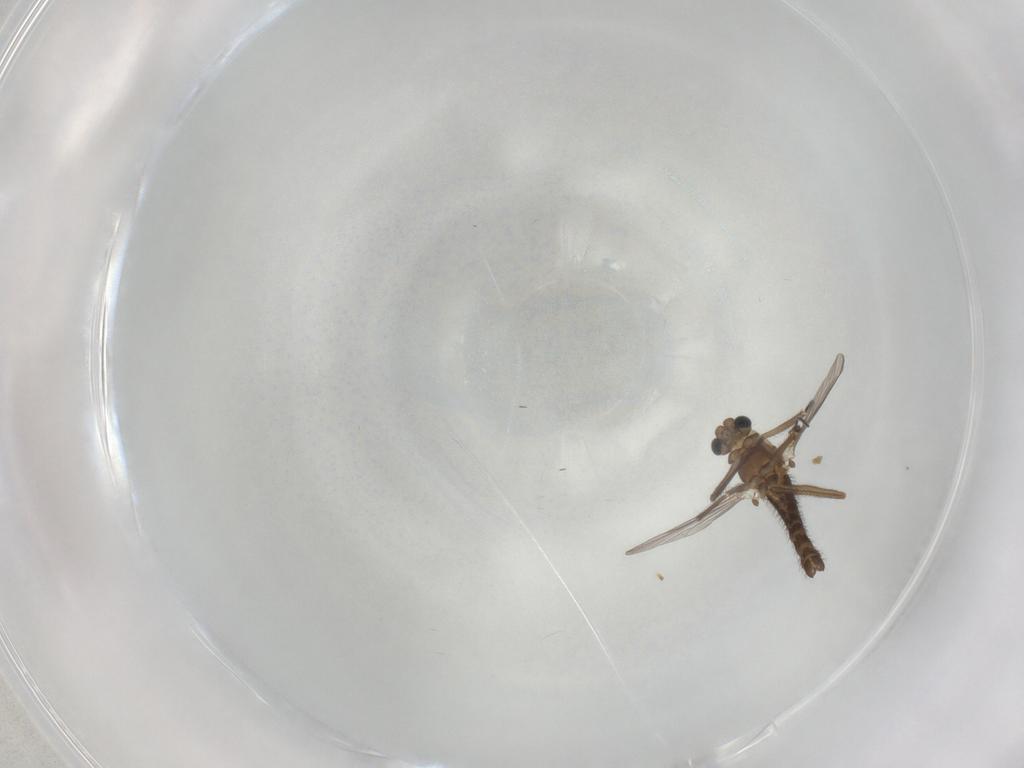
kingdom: Animalia
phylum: Arthropoda
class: Insecta
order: Diptera
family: Chironomidae
